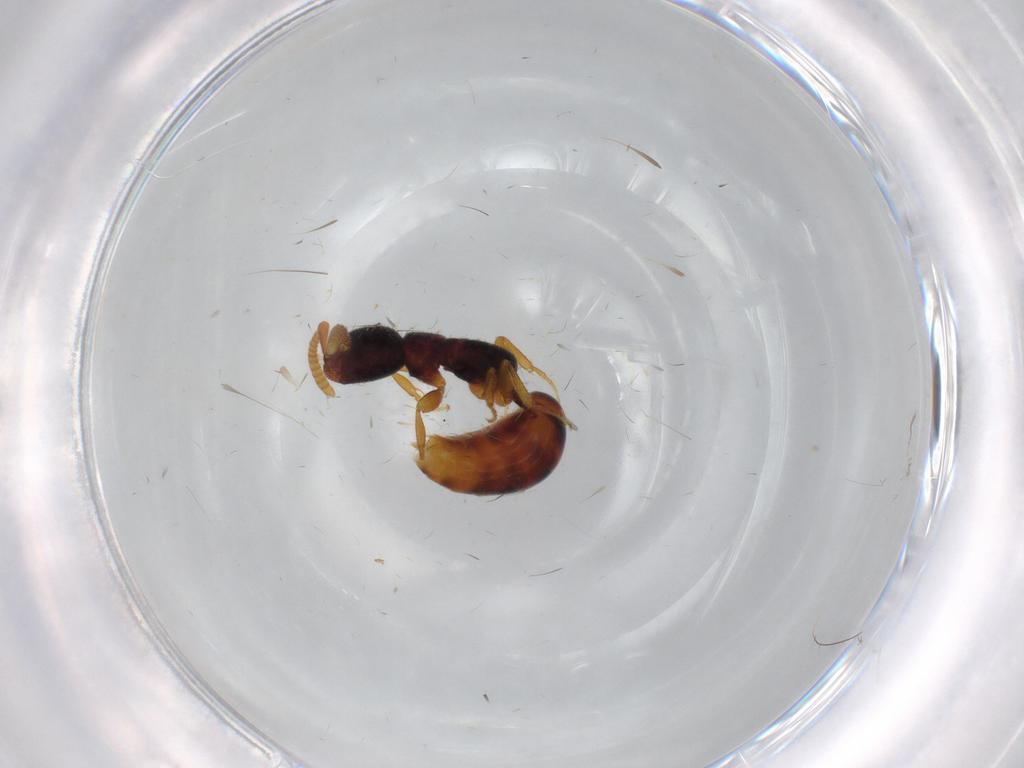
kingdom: Animalia
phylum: Arthropoda
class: Insecta
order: Hymenoptera
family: Bethylidae
